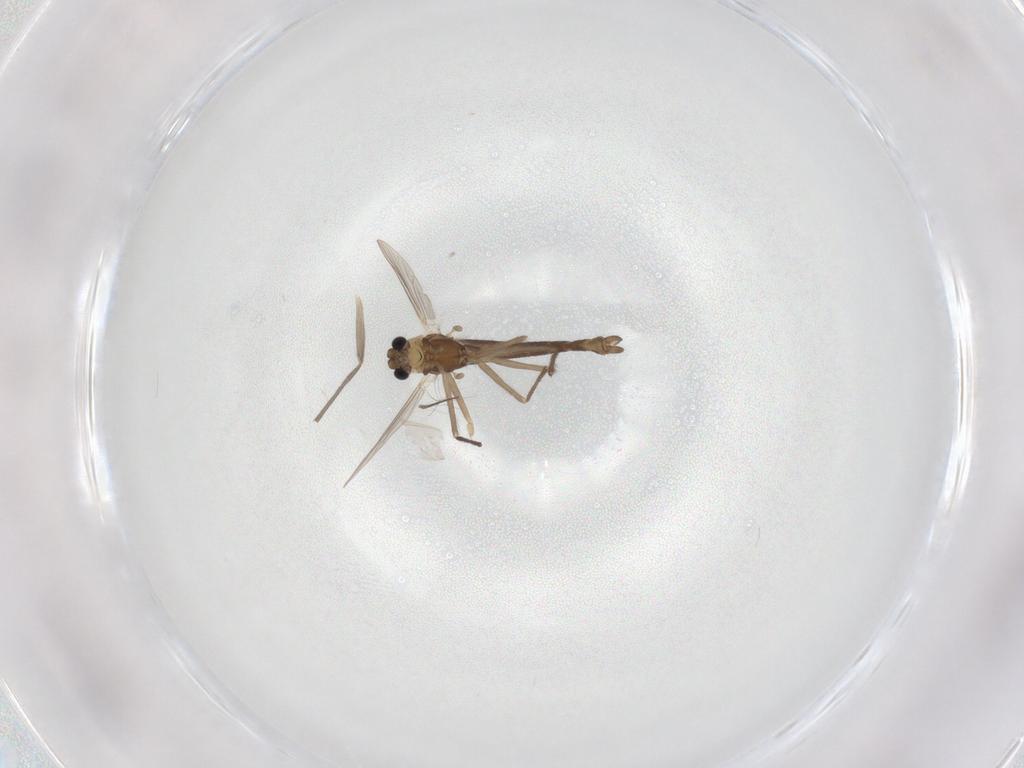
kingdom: Animalia
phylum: Arthropoda
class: Insecta
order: Diptera
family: Chironomidae
